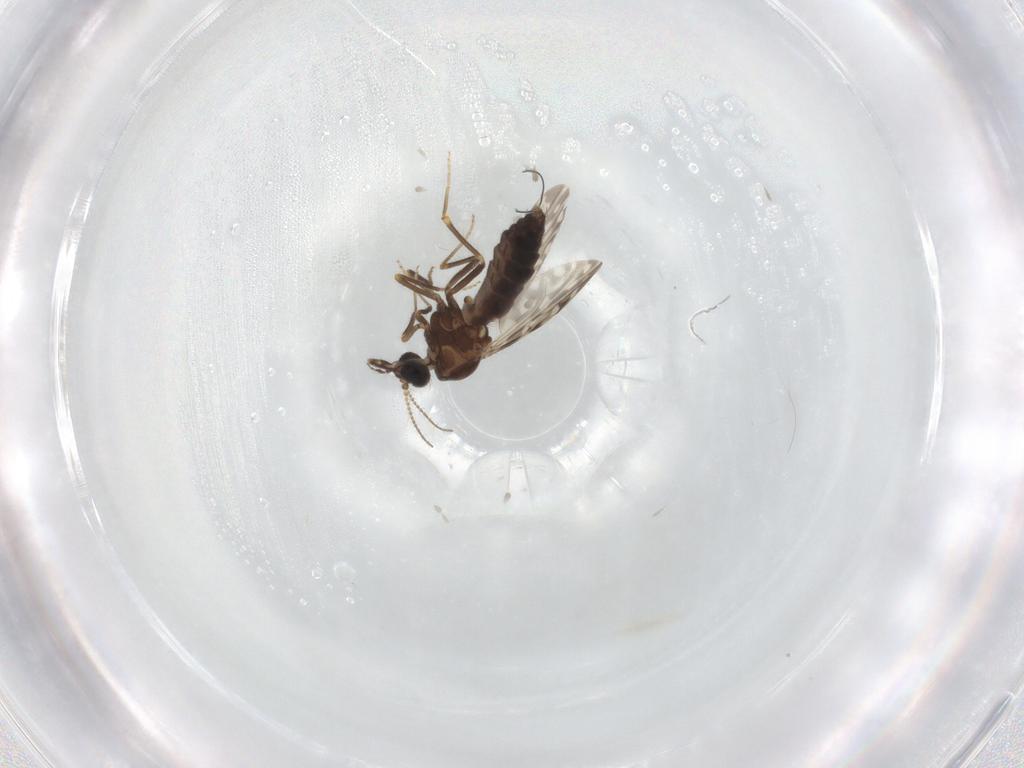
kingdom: Animalia
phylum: Arthropoda
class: Insecta
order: Diptera
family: Ceratopogonidae
